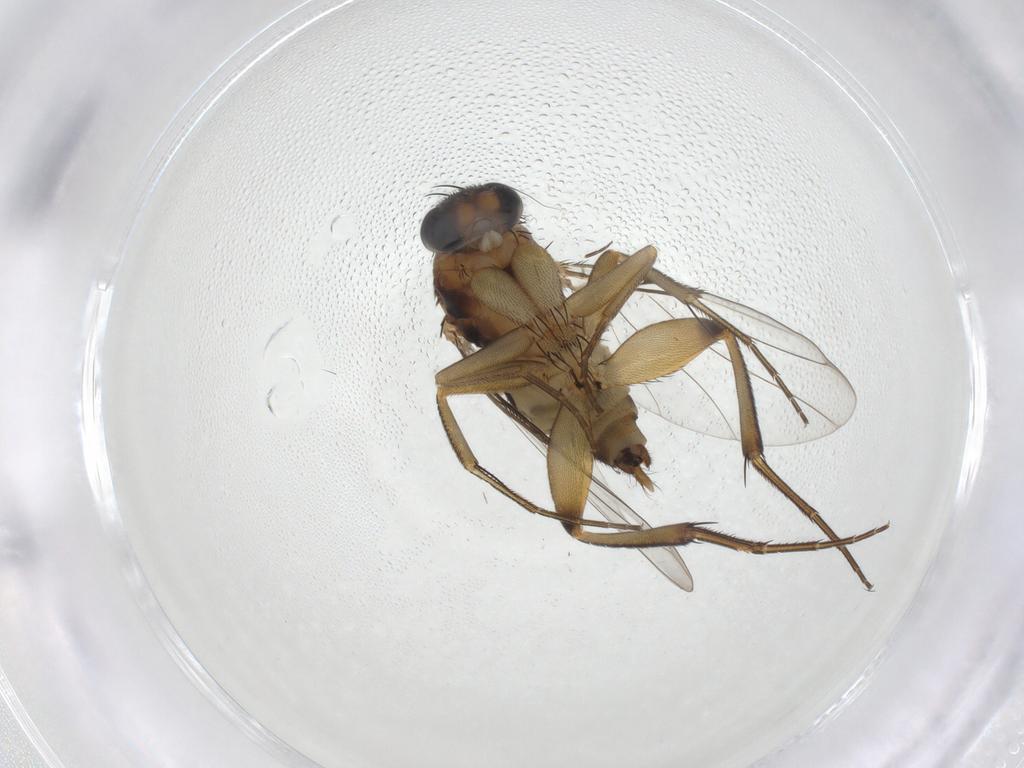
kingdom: Animalia
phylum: Arthropoda
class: Insecta
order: Diptera
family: Phoridae
